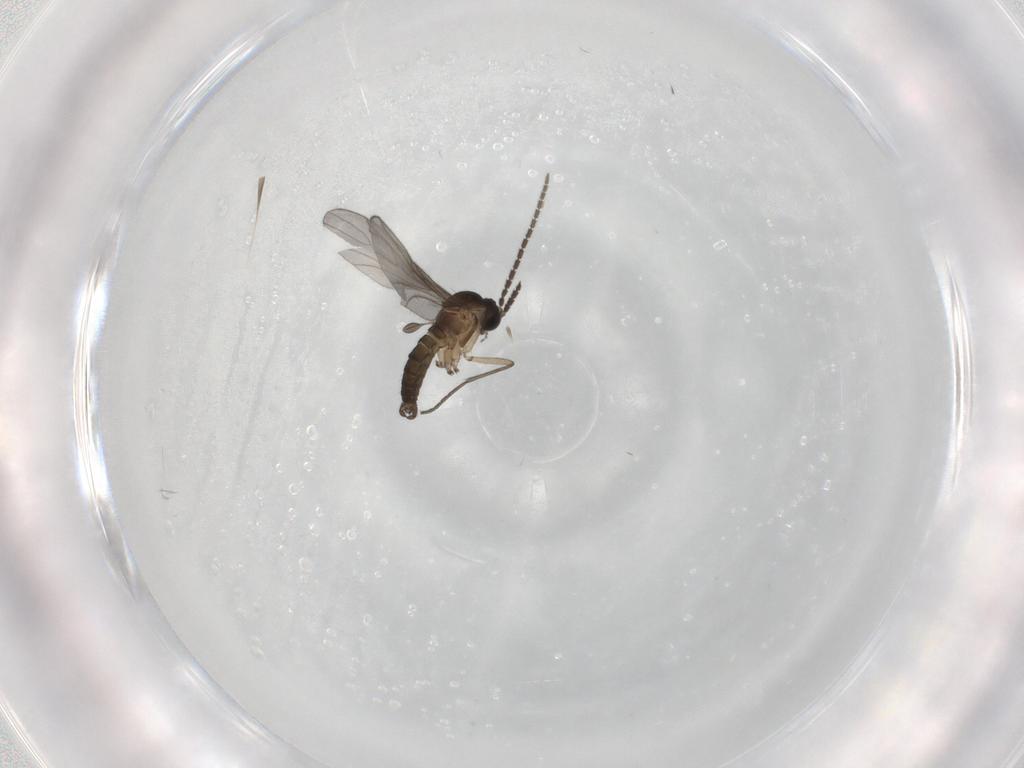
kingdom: Animalia
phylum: Arthropoda
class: Insecta
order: Diptera
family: Sciaridae
